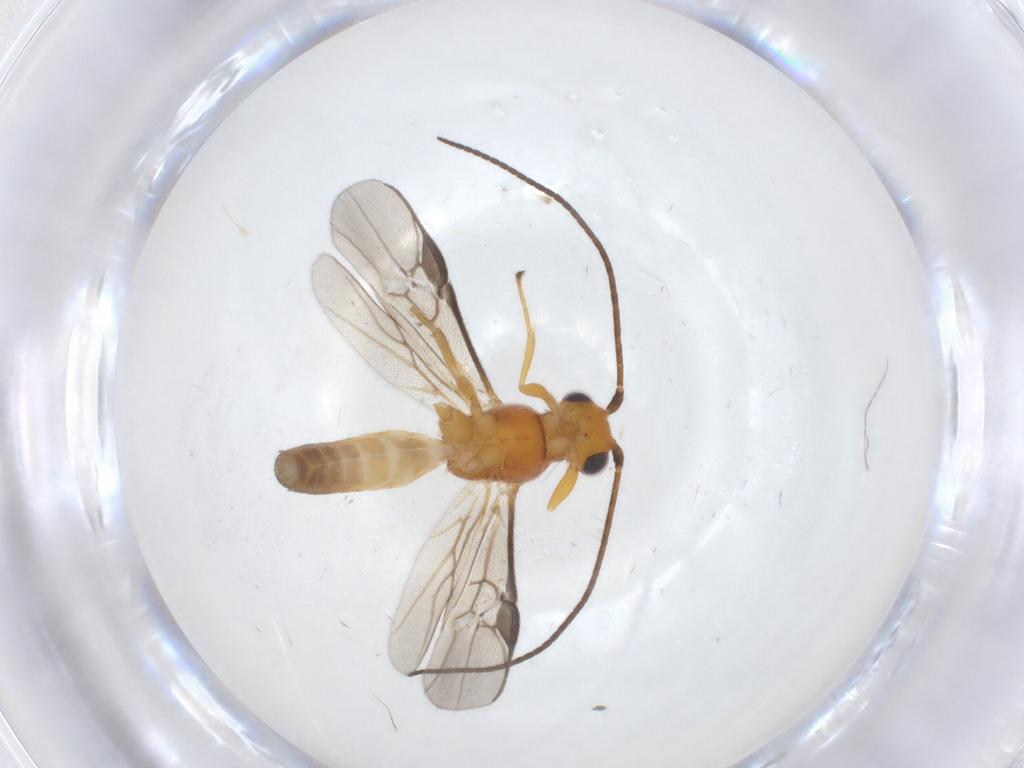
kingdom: Animalia
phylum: Arthropoda
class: Insecta
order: Hymenoptera
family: Braconidae
